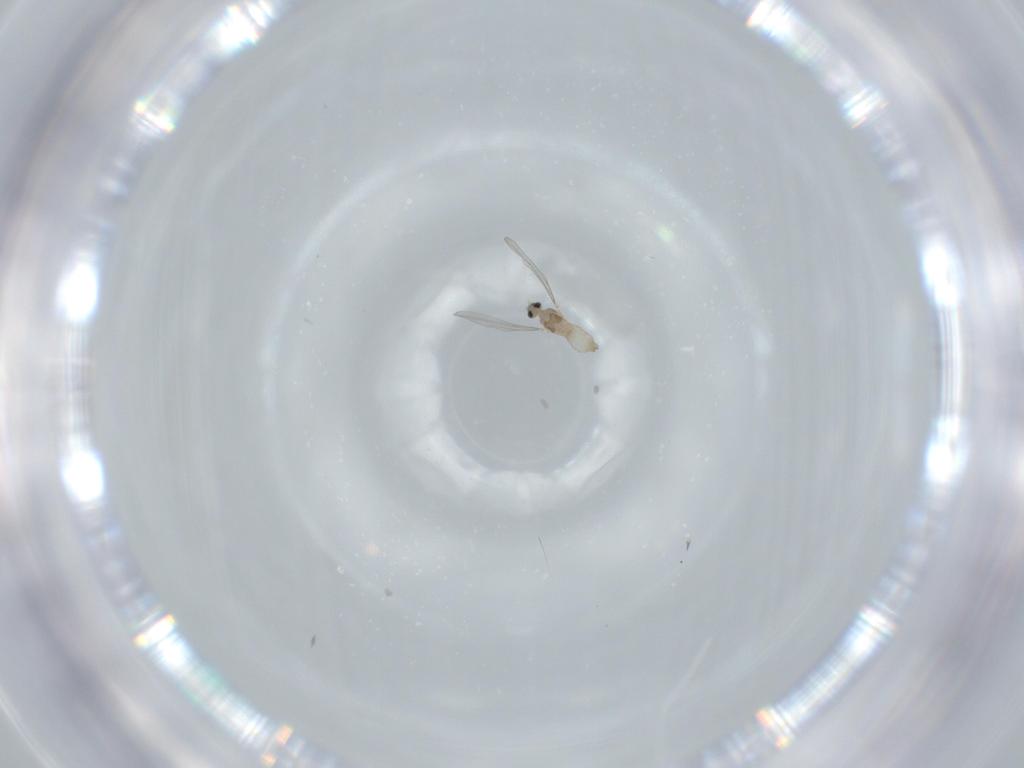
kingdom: Animalia
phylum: Arthropoda
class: Insecta
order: Diptera
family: Cecidomyiidae
